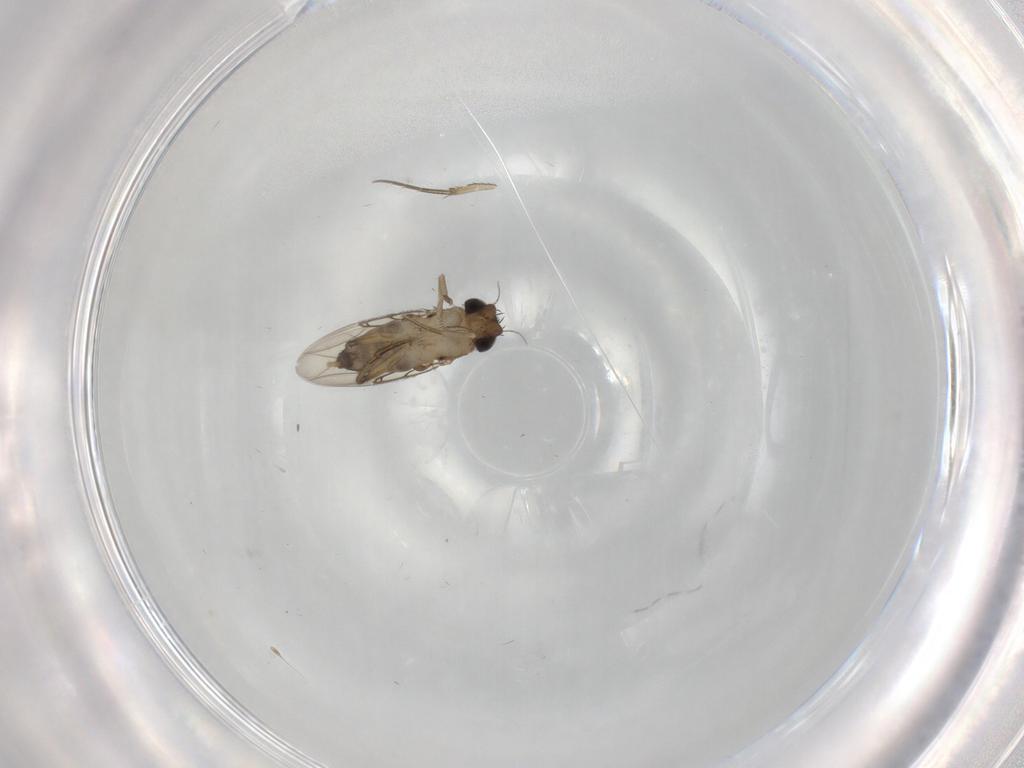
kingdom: Animalia
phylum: Arthropoda
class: Insecta
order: Diptera
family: Phoridae
